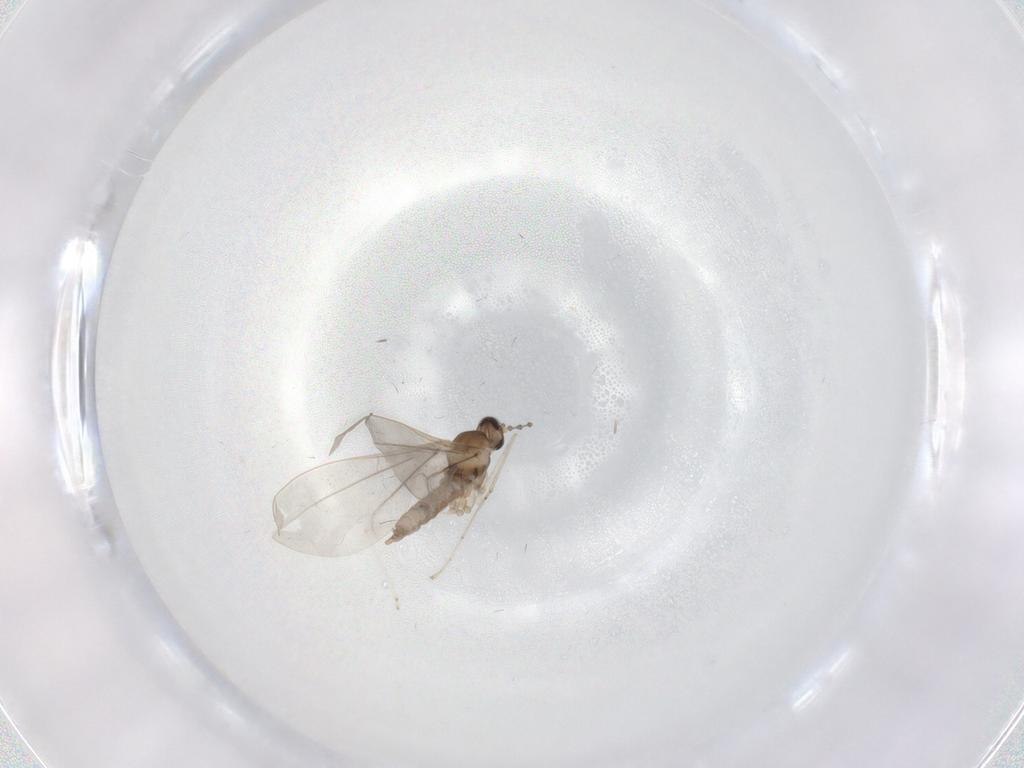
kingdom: Animalia
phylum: Arthropoda
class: Insecta
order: Diptera
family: Cecidomyiidae
